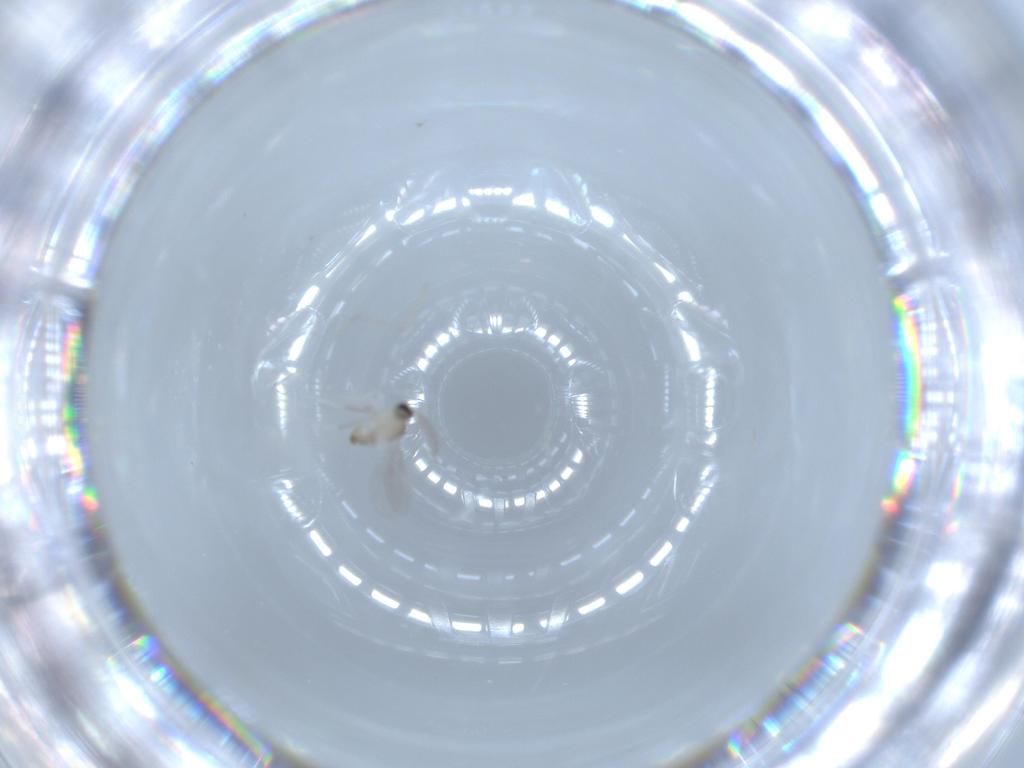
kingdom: Animalia
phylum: Arthropoda
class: Insecta
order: Diptera
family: Cecidomyiidae
